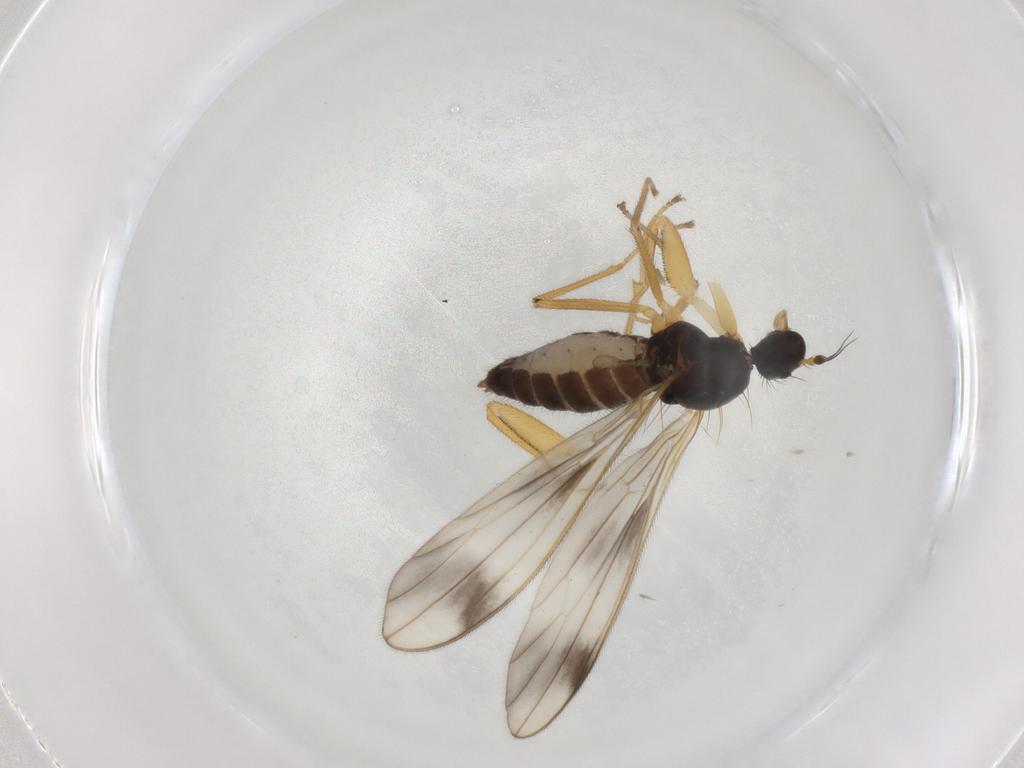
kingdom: Animalia
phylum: Arthropoda
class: Insecta
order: Diptera
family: Empididae
